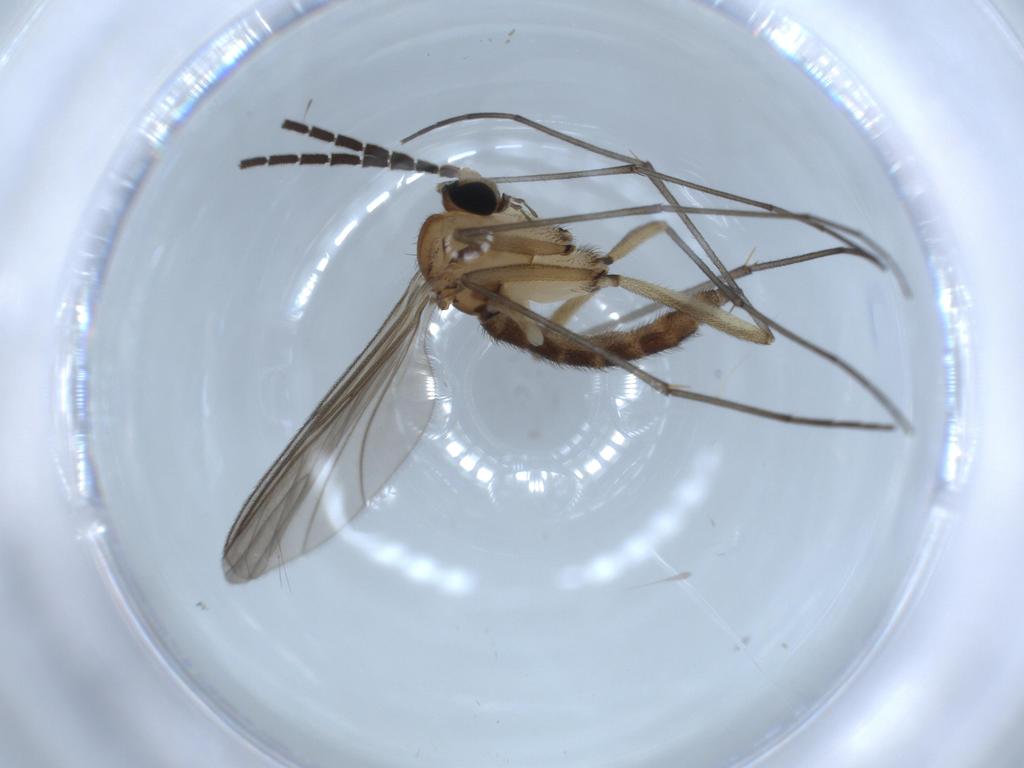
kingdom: Animalia
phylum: Arthropoda
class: Insecta
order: Diptera
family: Sciaridae
